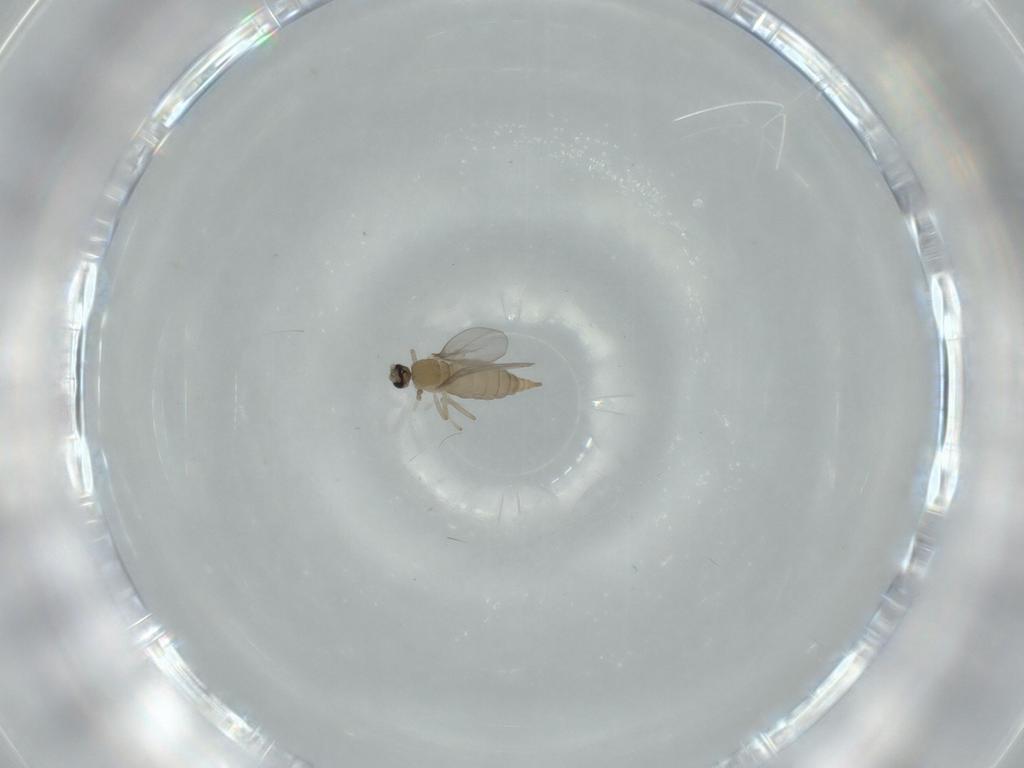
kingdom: Animalia
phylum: Arthropoda
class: Insecta
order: Diptera
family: Cecidomyiidae
